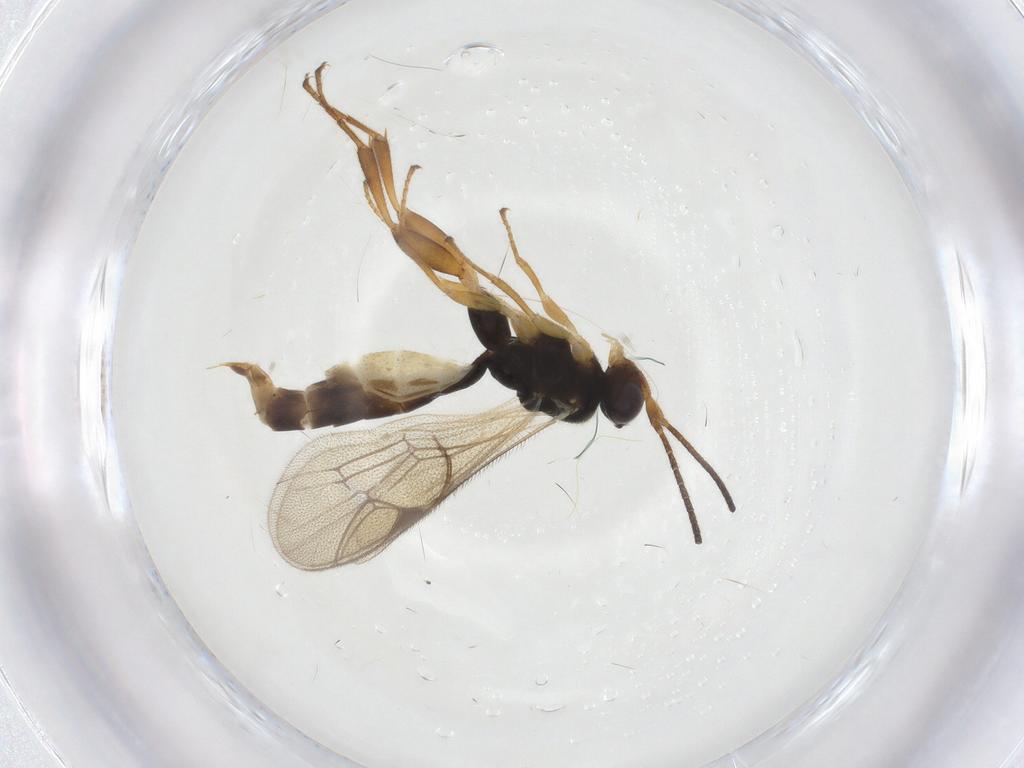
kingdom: Animalia
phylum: Arthropoda
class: Insecta
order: Hymenoptera
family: Ichneumonidae
